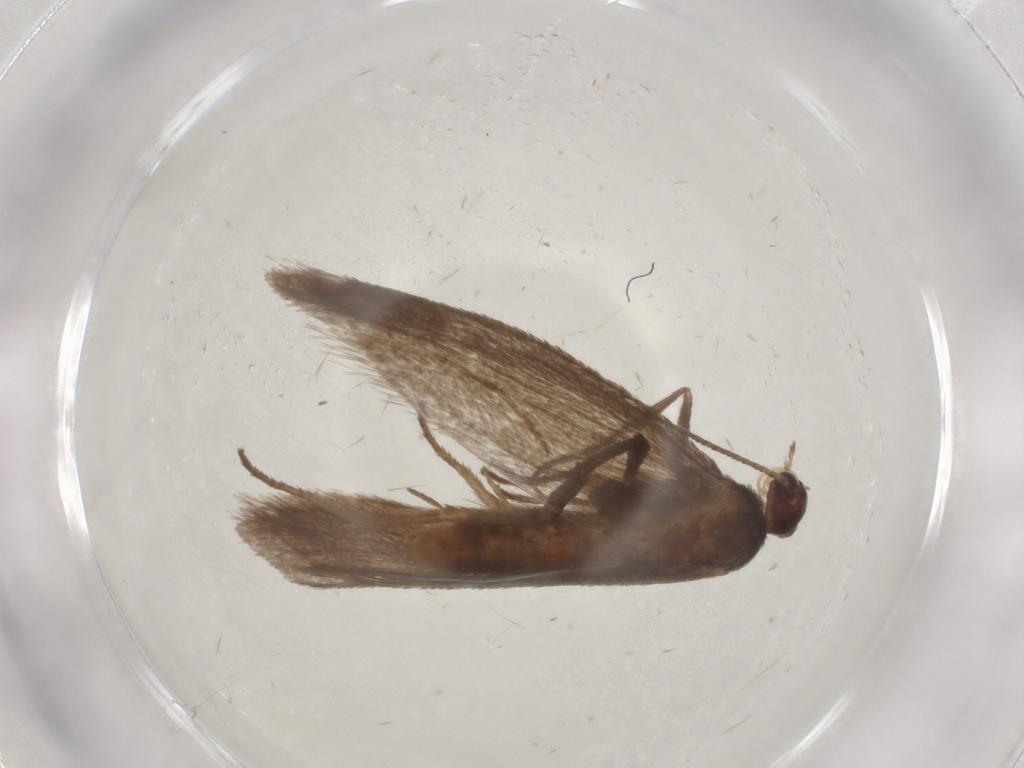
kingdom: Animalia
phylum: Arthropoda
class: Insecta
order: Lepidoptera
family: Limacodidae
